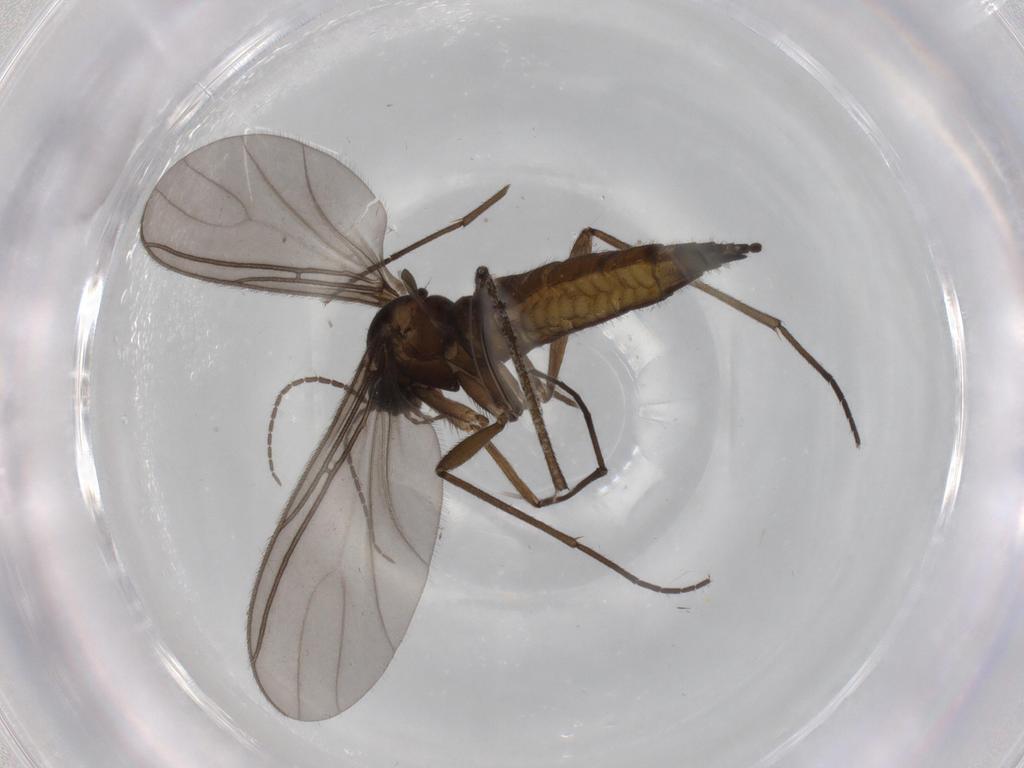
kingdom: Animalia
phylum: Arthropoda
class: Insecta
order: Diptera
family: Sciaridae
